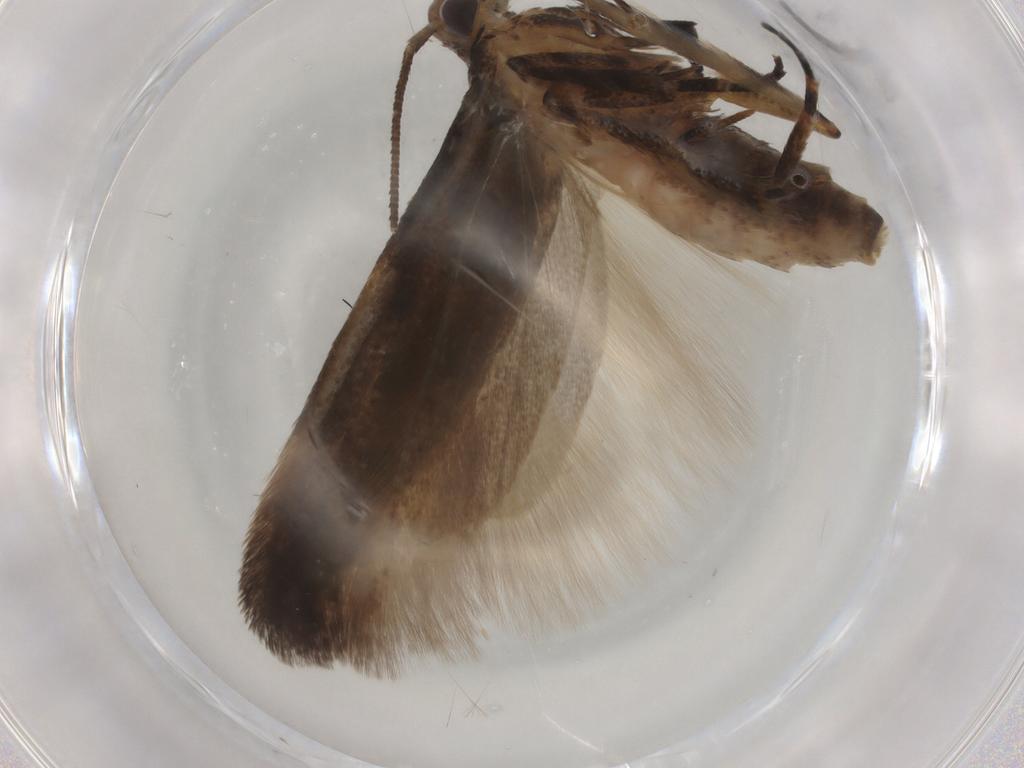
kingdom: Animalia
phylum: Arthropoda
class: Insecta
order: Lepidoptera
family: Gelechiidae
